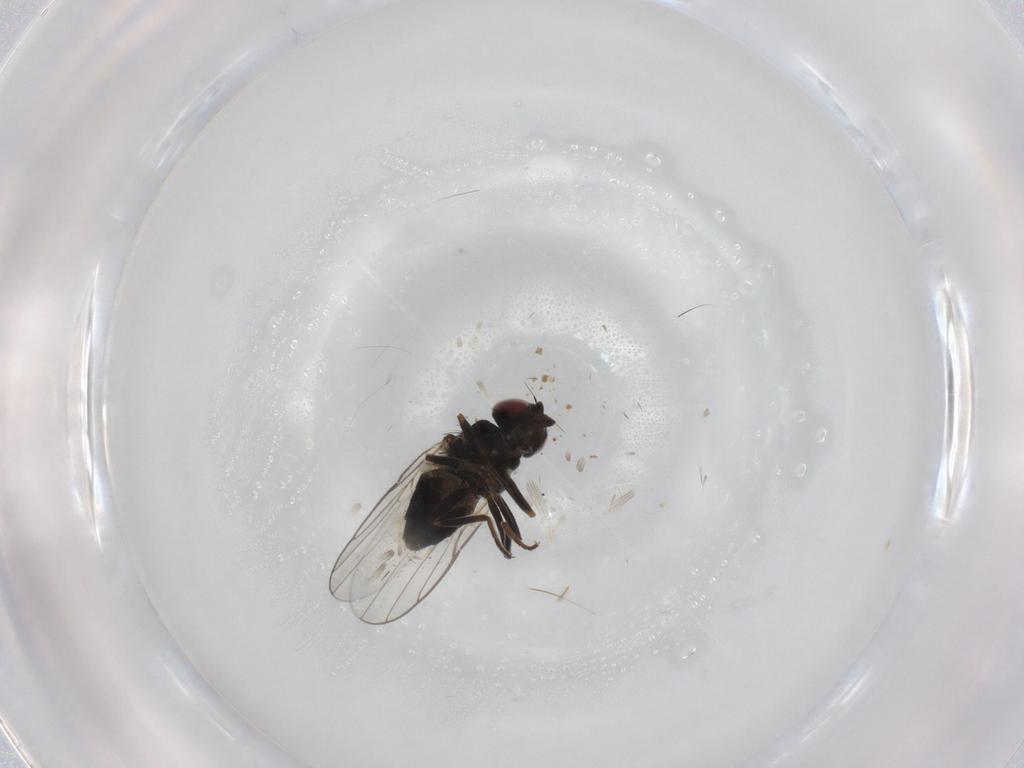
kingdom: Animalia
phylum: Arthropoda
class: Insecta
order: Diptera
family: Chloropidae
